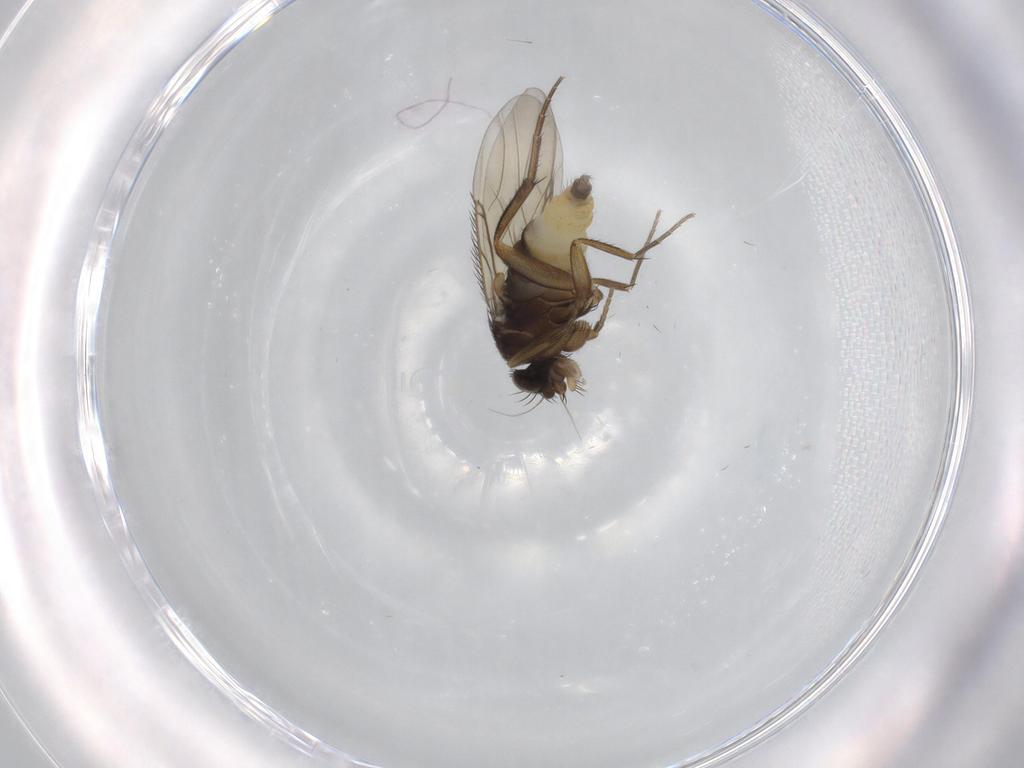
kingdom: Animalia
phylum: Arthropoda
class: Insecta
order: Diptera
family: Phoridae
